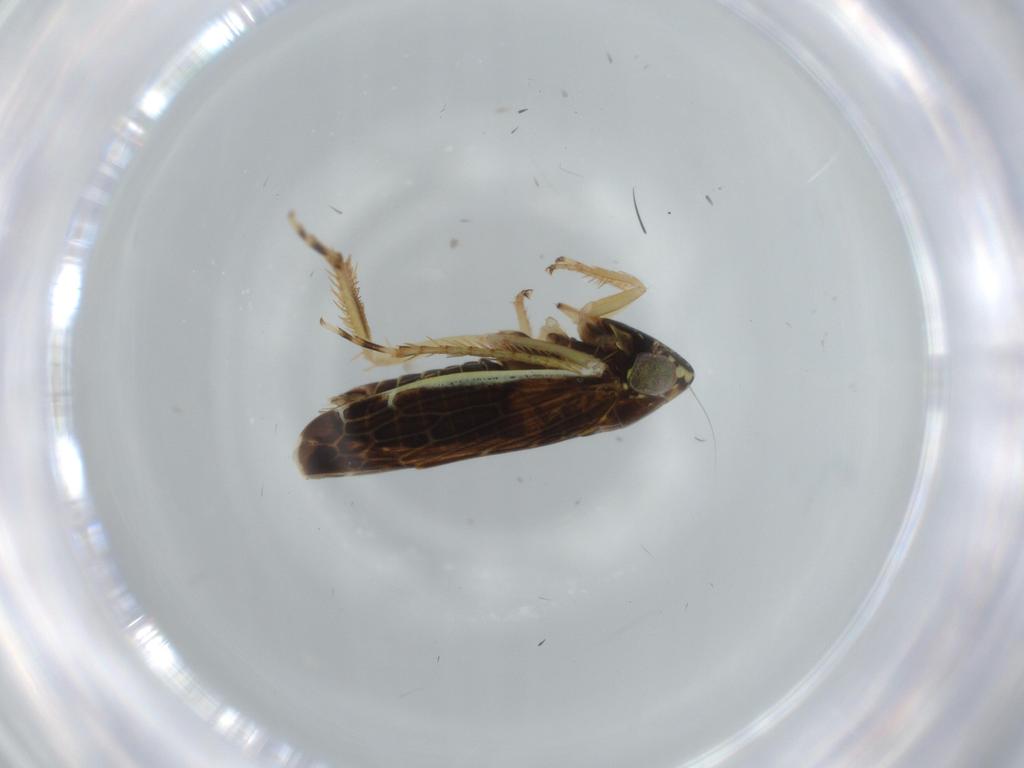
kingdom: Animalia
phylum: Arthropoda
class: Insecta
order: Hemiptera
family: Cicadellidae
